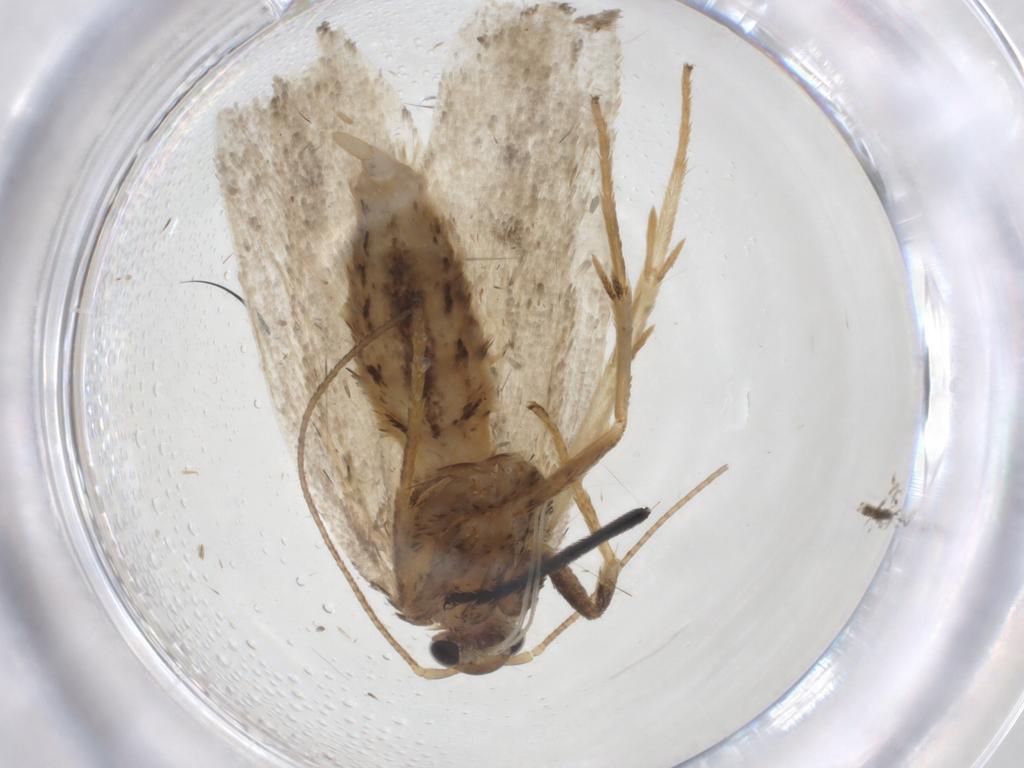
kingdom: Animalia
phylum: Arthropoda
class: Insecta
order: Lepidoptera
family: Depressariidae
